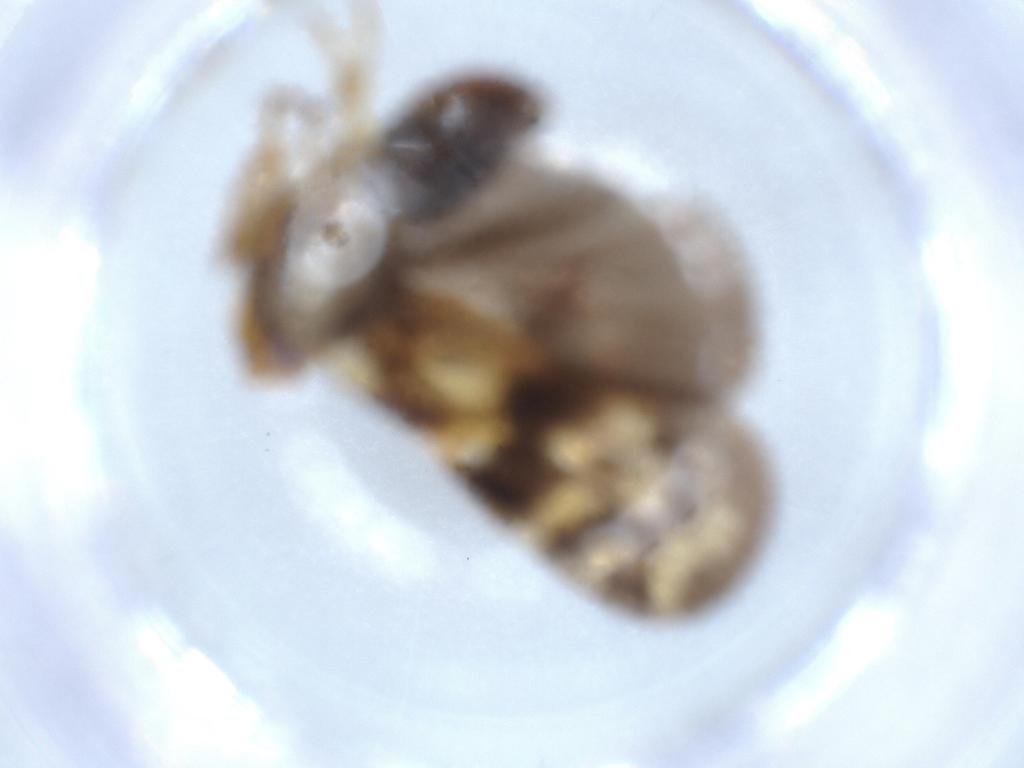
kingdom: Animalia
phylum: Arthropoda
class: Insecta
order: Hemiptera
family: Cixiidae
